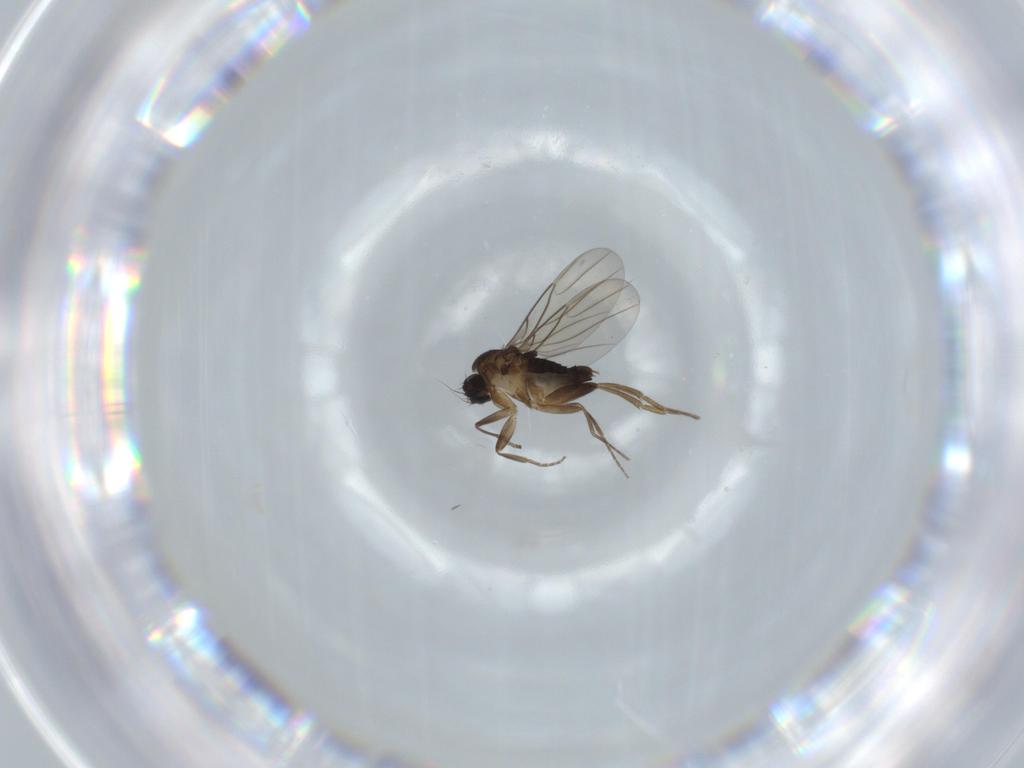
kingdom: Animalia
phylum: Arthropoda
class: Insecta
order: Diptera
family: Phoridae
